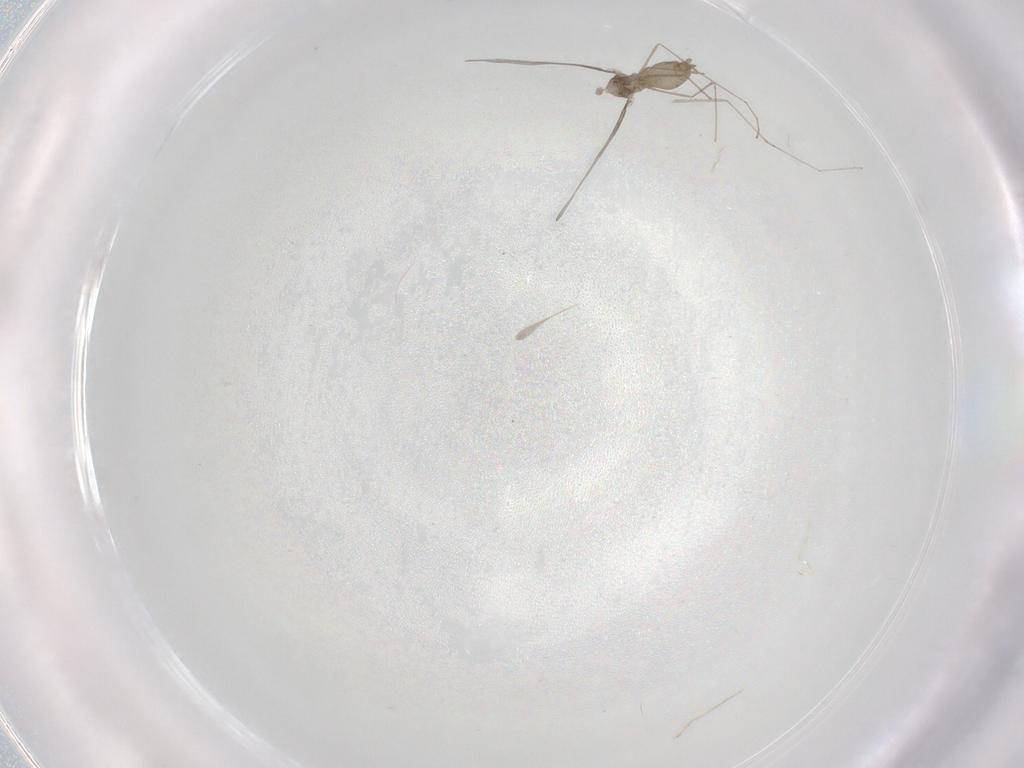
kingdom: Animalia
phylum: Arthropoda
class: Insecta
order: Diptera
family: Cecidomyiidae
